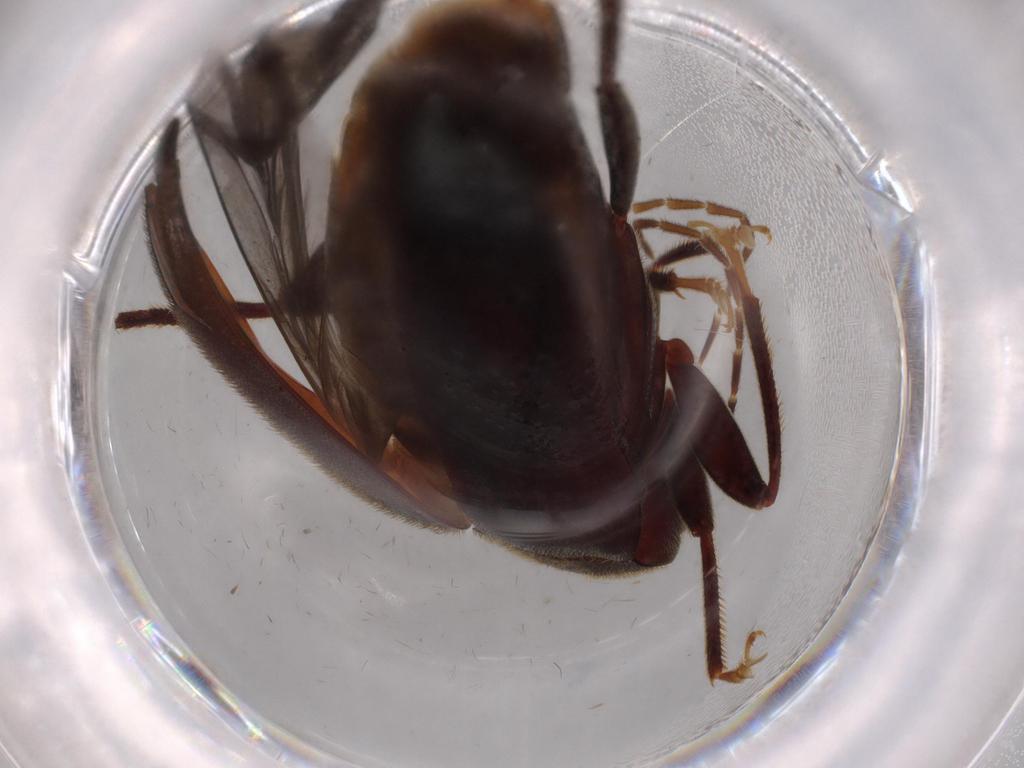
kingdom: Animalia
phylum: Arthropoda
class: Insecta
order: Coleoptera
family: Ptilodactylidae
